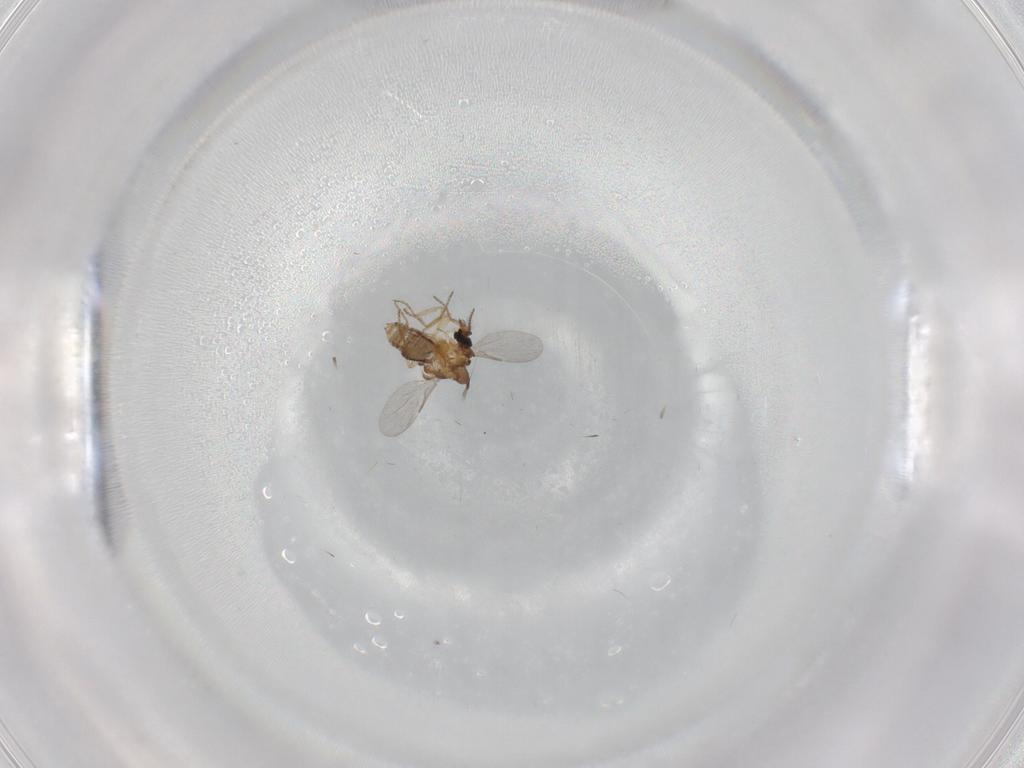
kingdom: Animalia
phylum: Arthropoda
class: Insecta
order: Diptera
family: Ceratopogonidae
